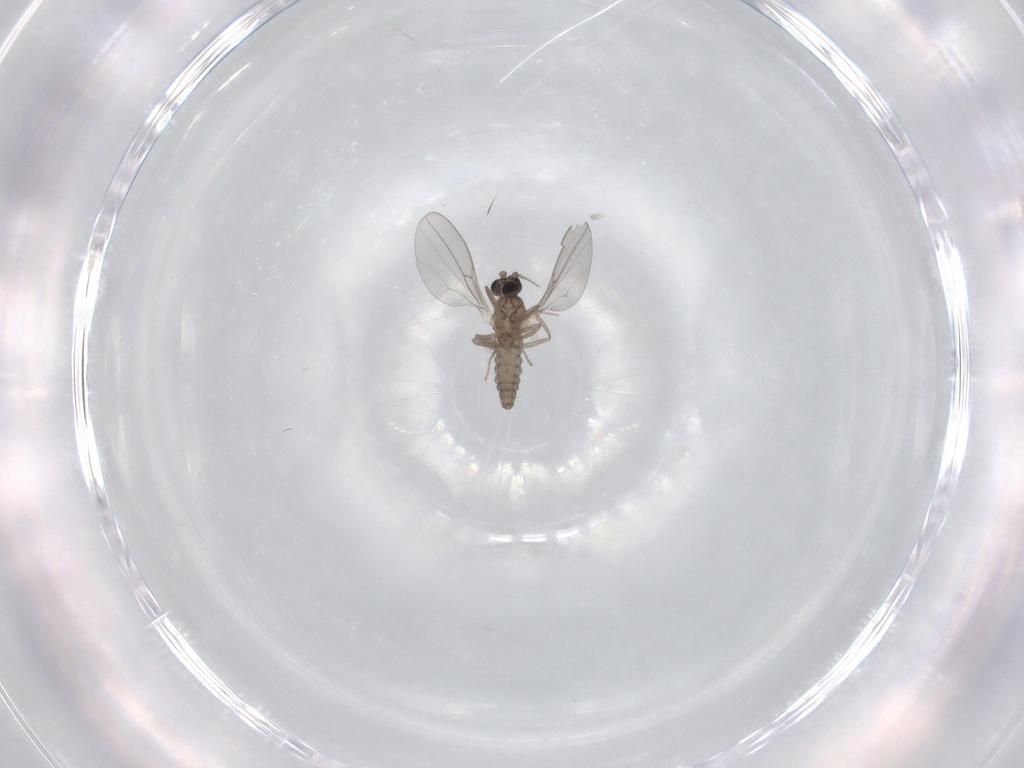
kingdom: Animalia
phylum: Arthropoda
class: Insecta
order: Diptera
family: Cecidomyiidae
